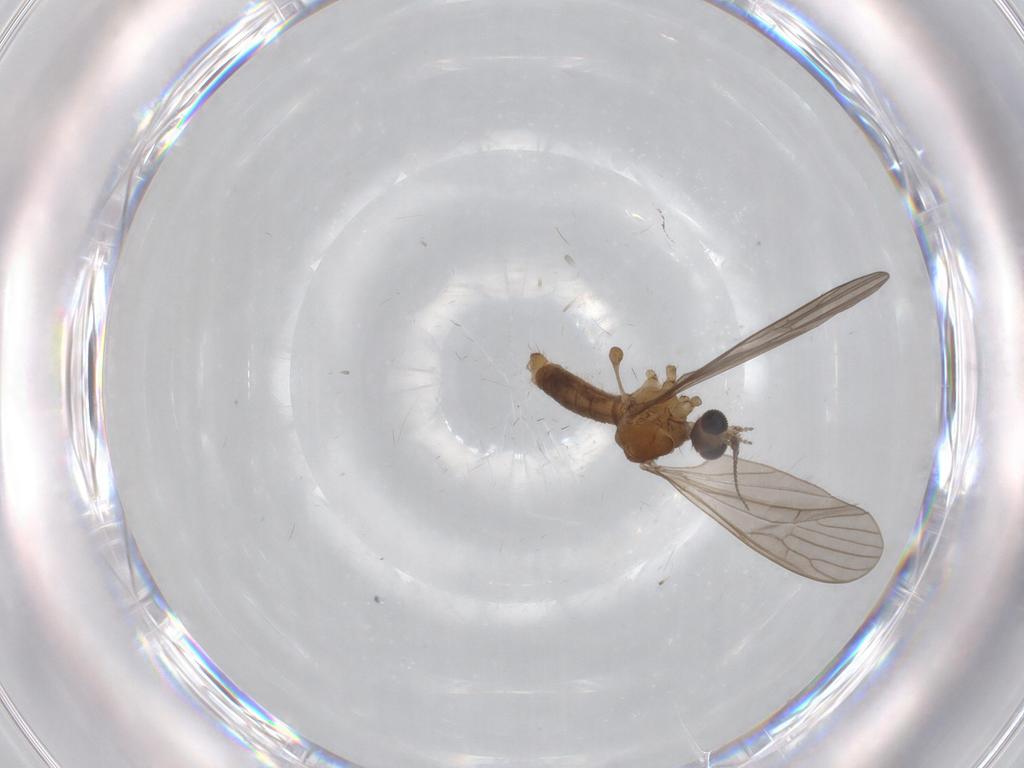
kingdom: Animalia
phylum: Arthropoda
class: Insecta
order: Diptera
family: Limoniidae
